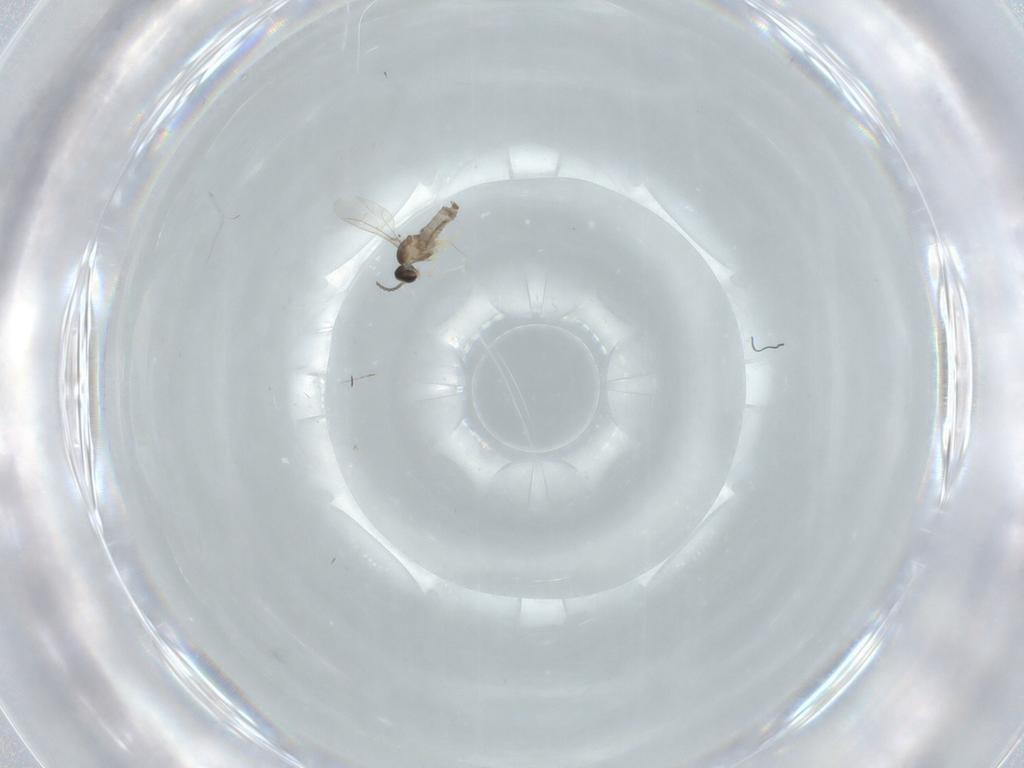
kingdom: Animalia
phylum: Arthropoda
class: Insecta
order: Diptera
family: Cecidomyiidae
